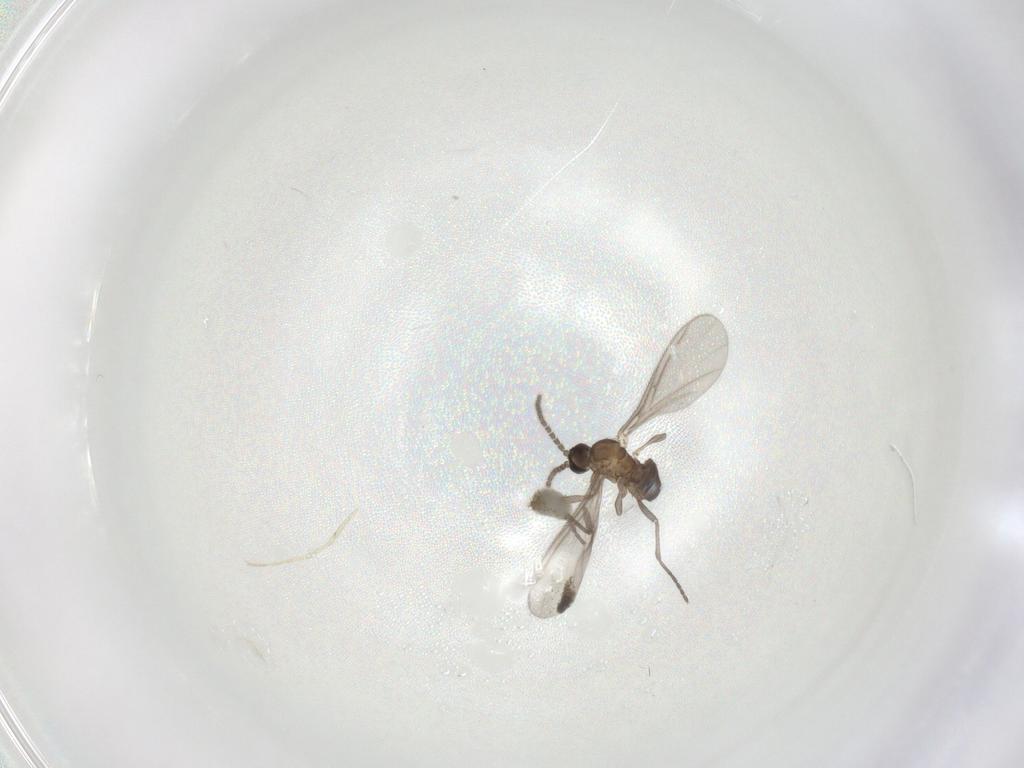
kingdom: Animalia
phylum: Arthropoda
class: Insecta
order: Diptera
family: Sciaridae
